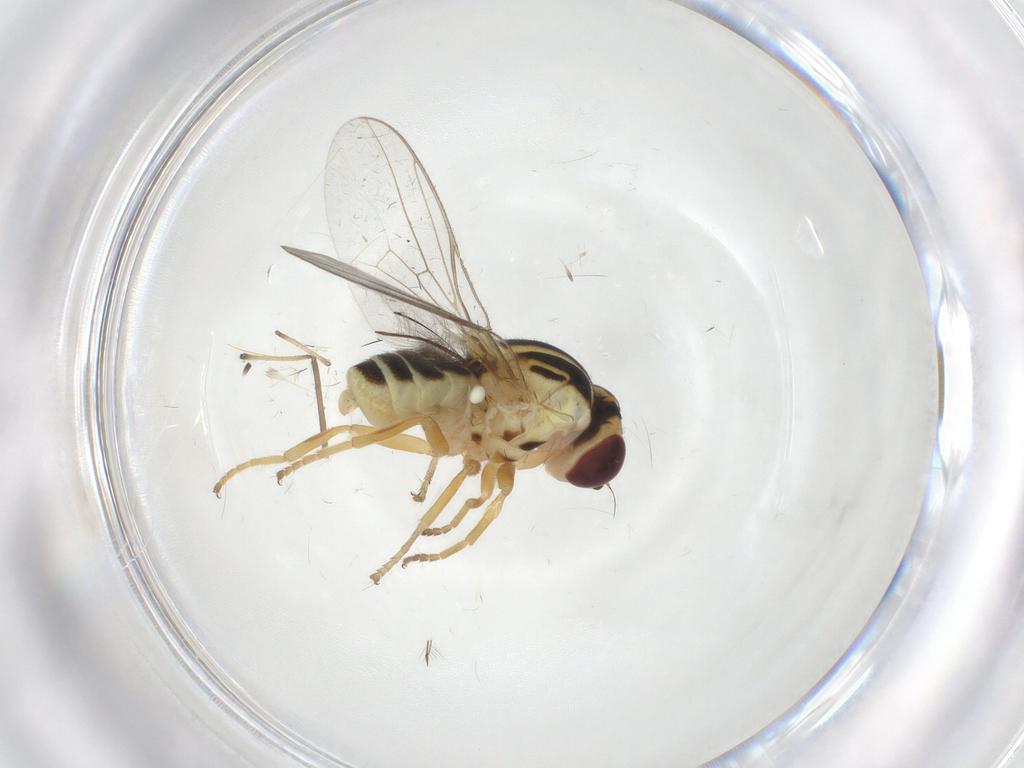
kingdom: Animalia
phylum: Arthropoda
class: Insecta
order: Diptera
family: Chloropidae
